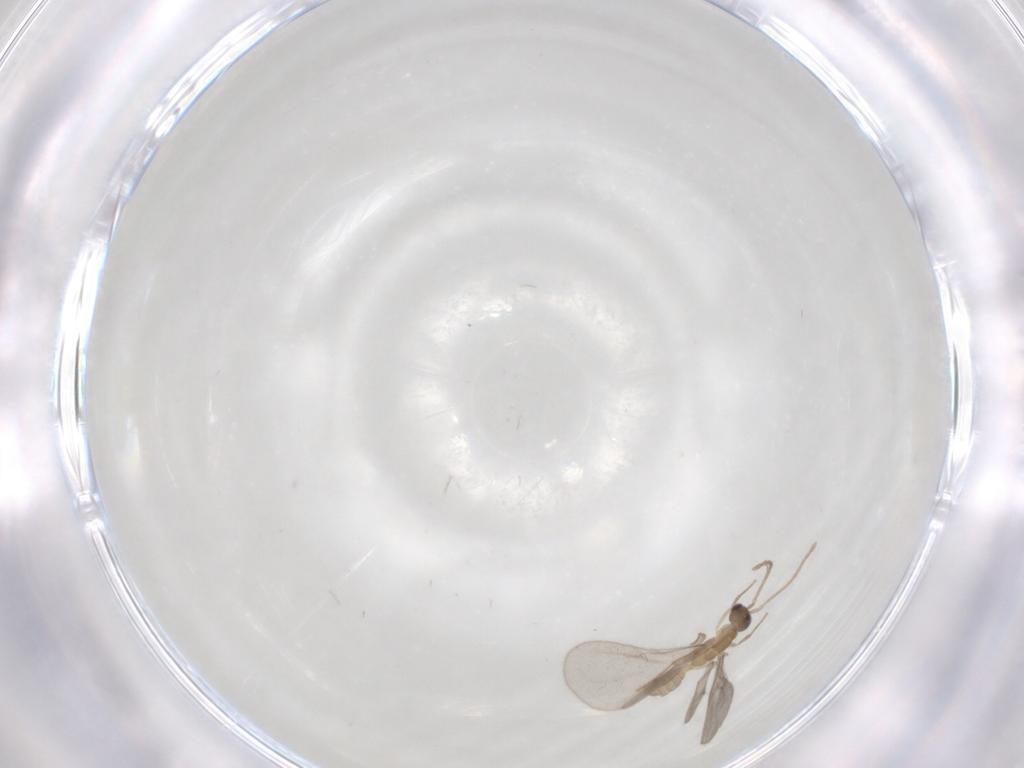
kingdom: Animalia
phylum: Arthropoda
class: Insecta
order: Hymenoptera
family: Formicidae
